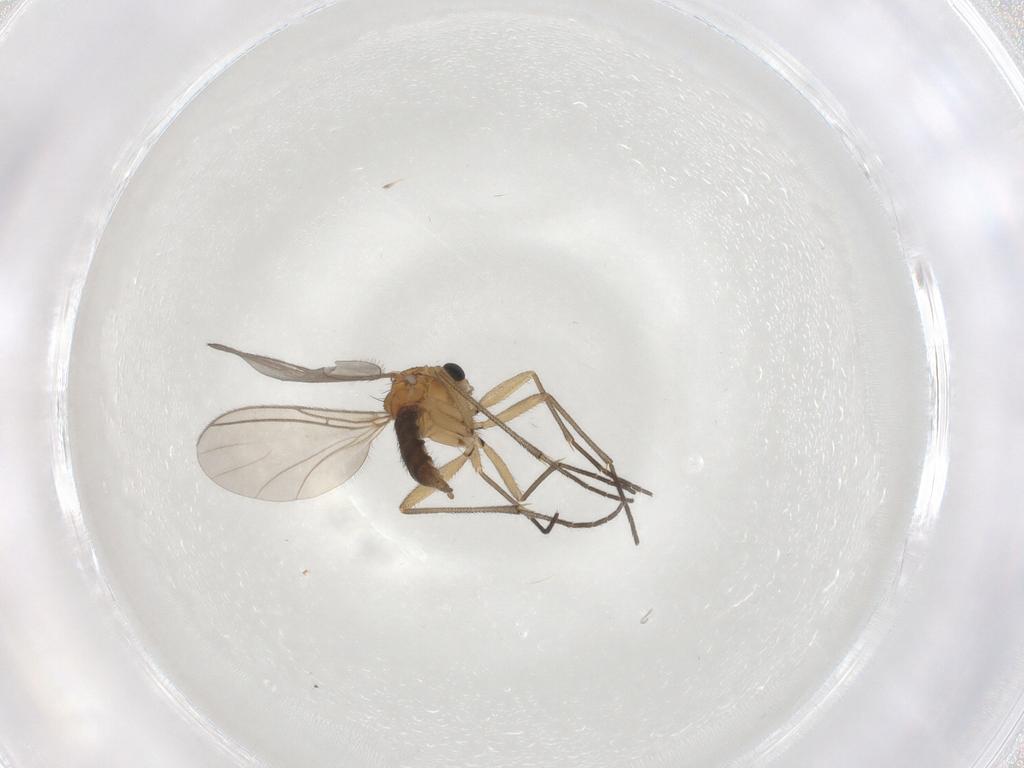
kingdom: Animalia
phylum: Arthropoda
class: Insecta
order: Diptera
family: Sciaridae
